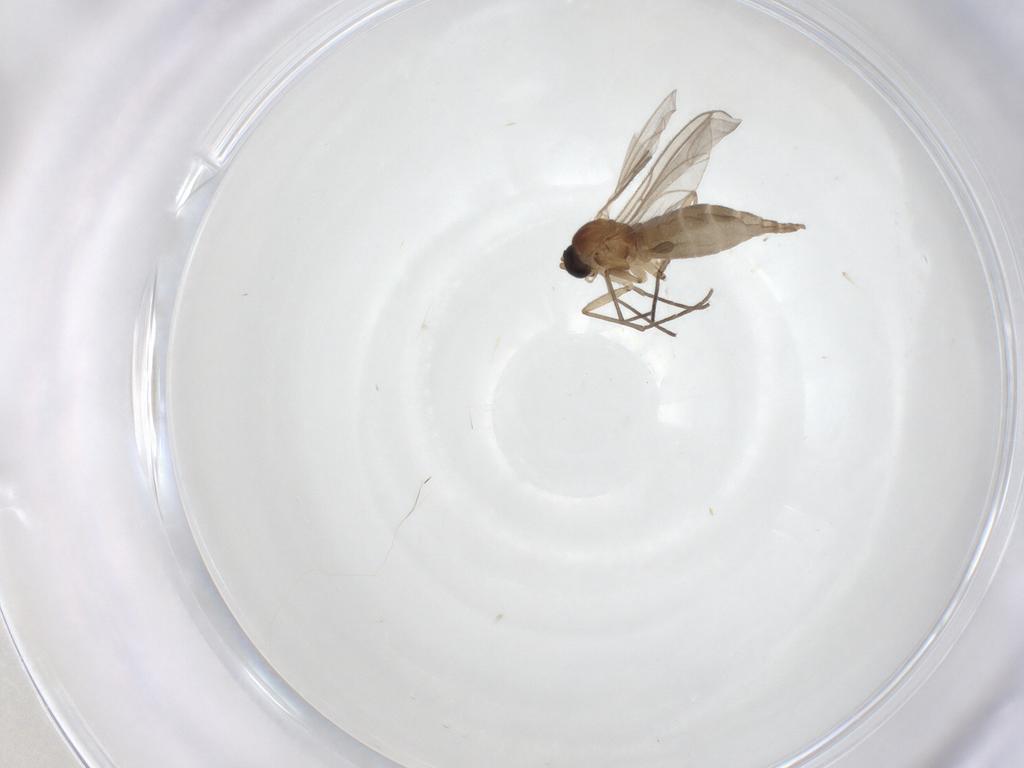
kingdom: Animalia
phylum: Arthropoda
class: Insecta
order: Diptera
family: Sciaridae
